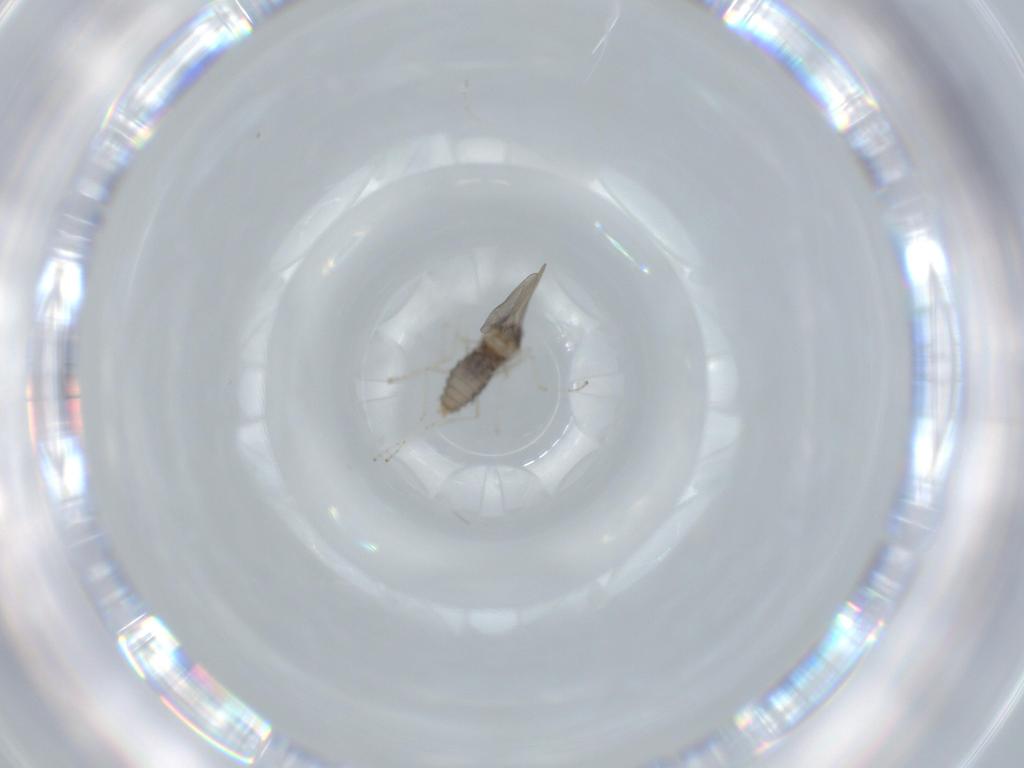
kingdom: Animalia
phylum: Arthropoda
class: Insecta
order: Diptera
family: Cecidomyiidae
